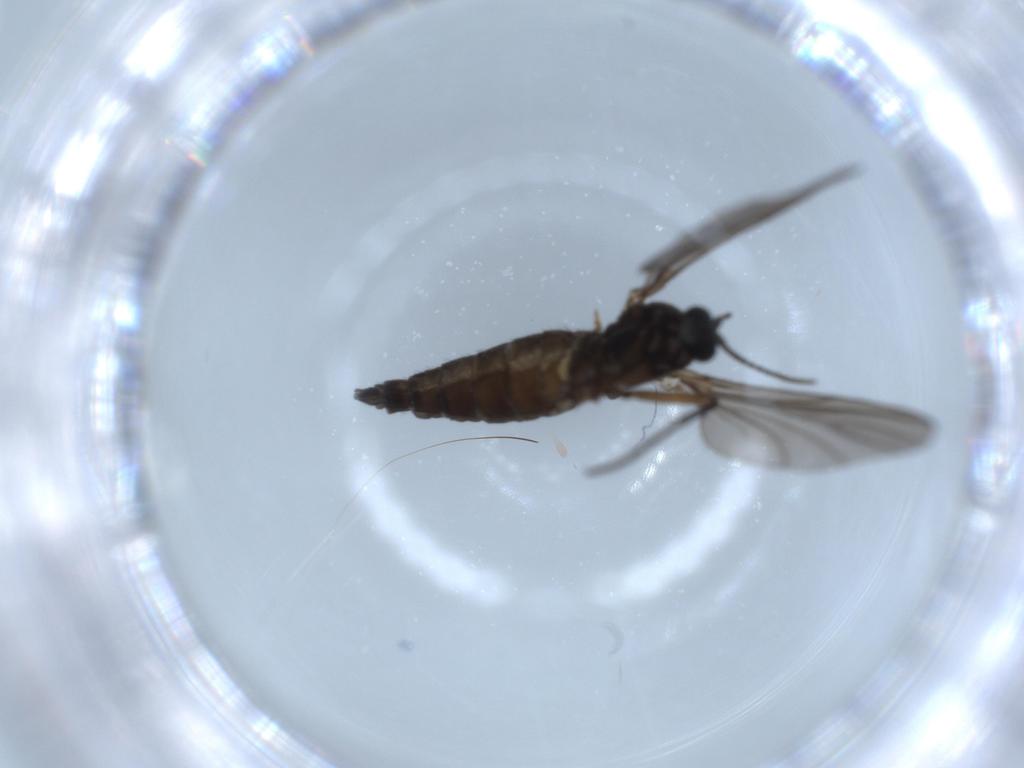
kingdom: Animalia
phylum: Arthropoda
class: Insecta
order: Diptera
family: Sciaridae
